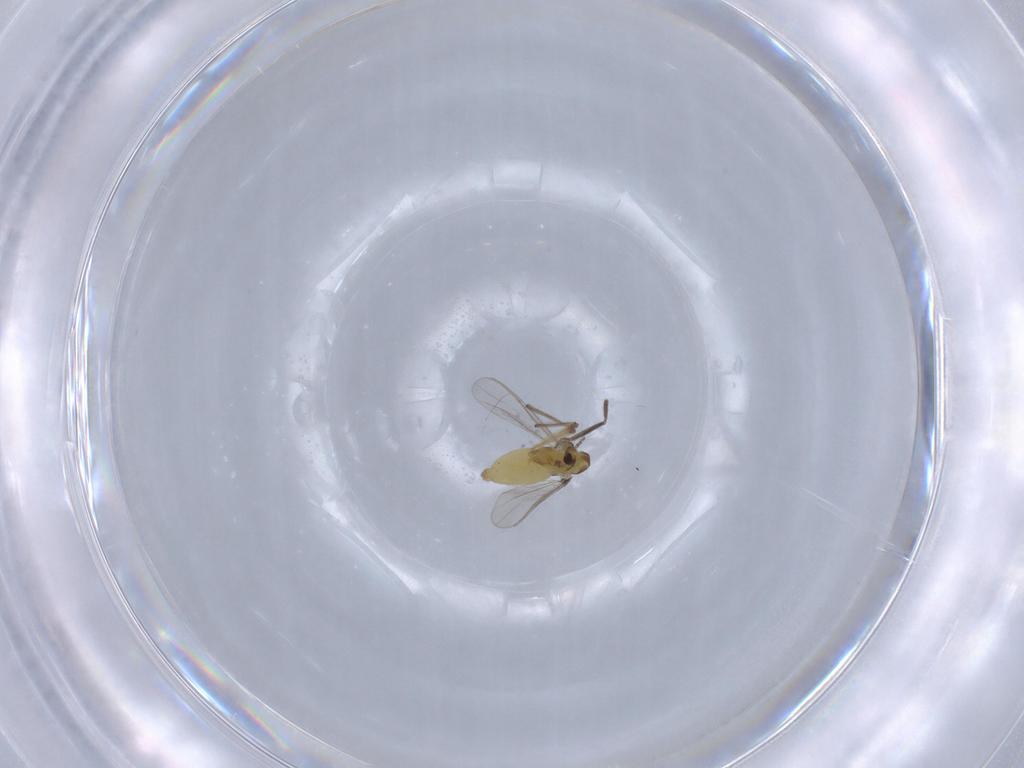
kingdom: Animalia
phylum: Arthropoda
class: Insecta
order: Diptera
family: Chironomidae
